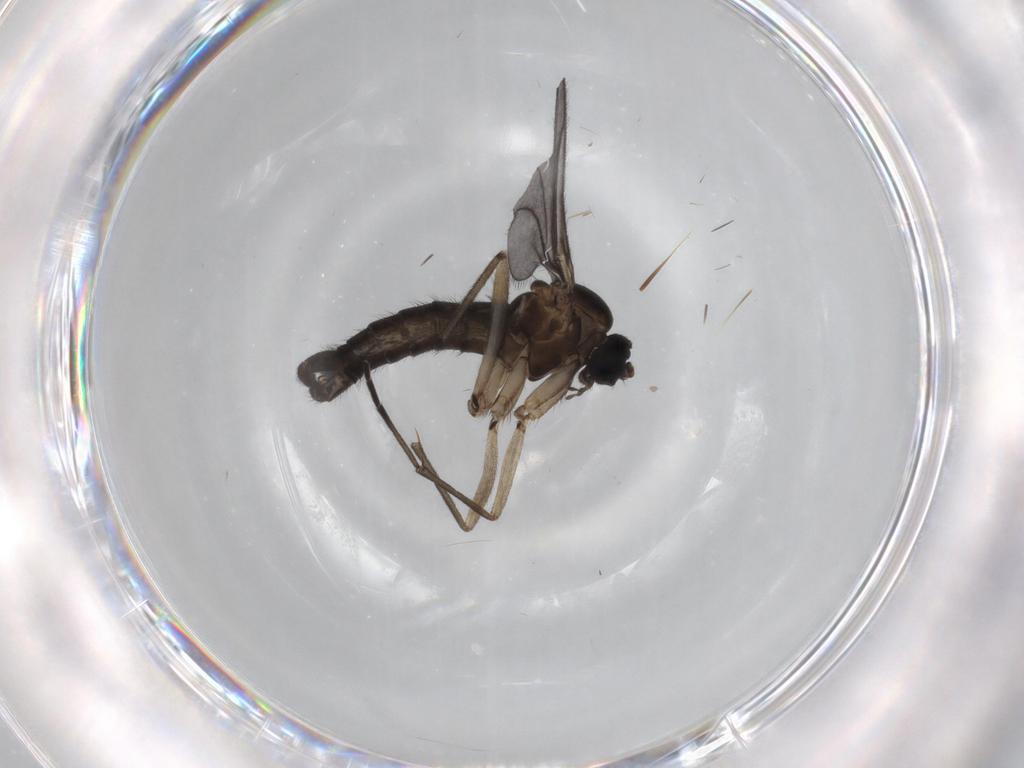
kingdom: Animalia
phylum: Arthropoda
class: Insecta
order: Diptera
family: Sciaridae
